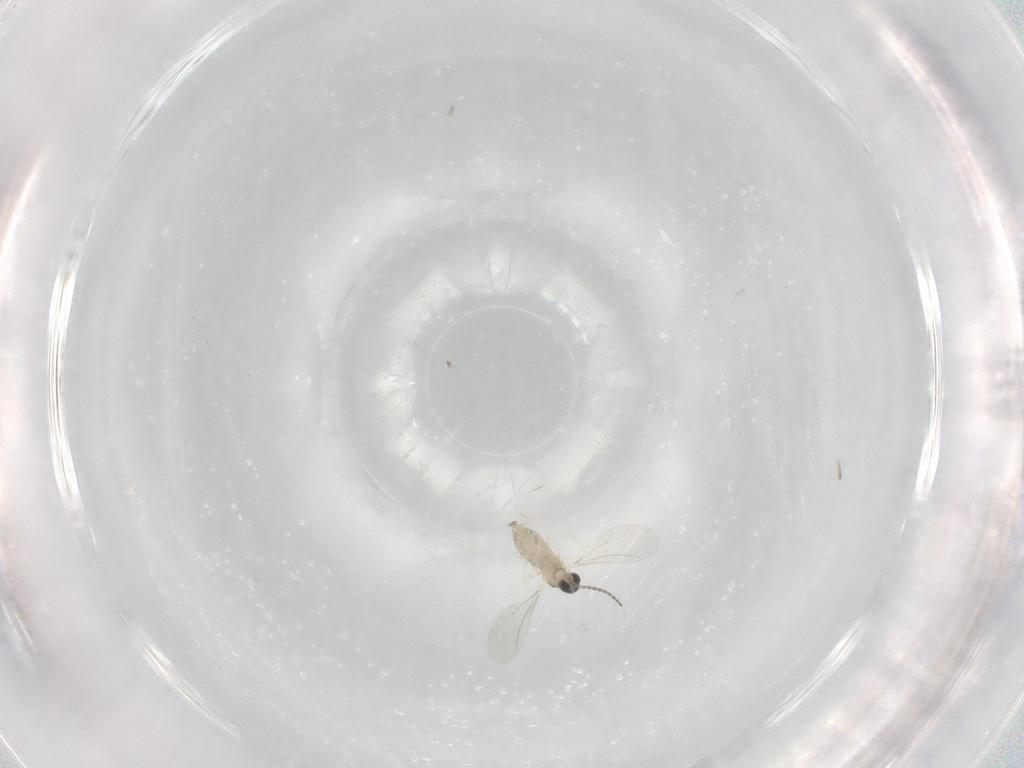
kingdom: Animalia
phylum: Arthropoda
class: Insecta
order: Diptera
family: Cecidomyiidae
